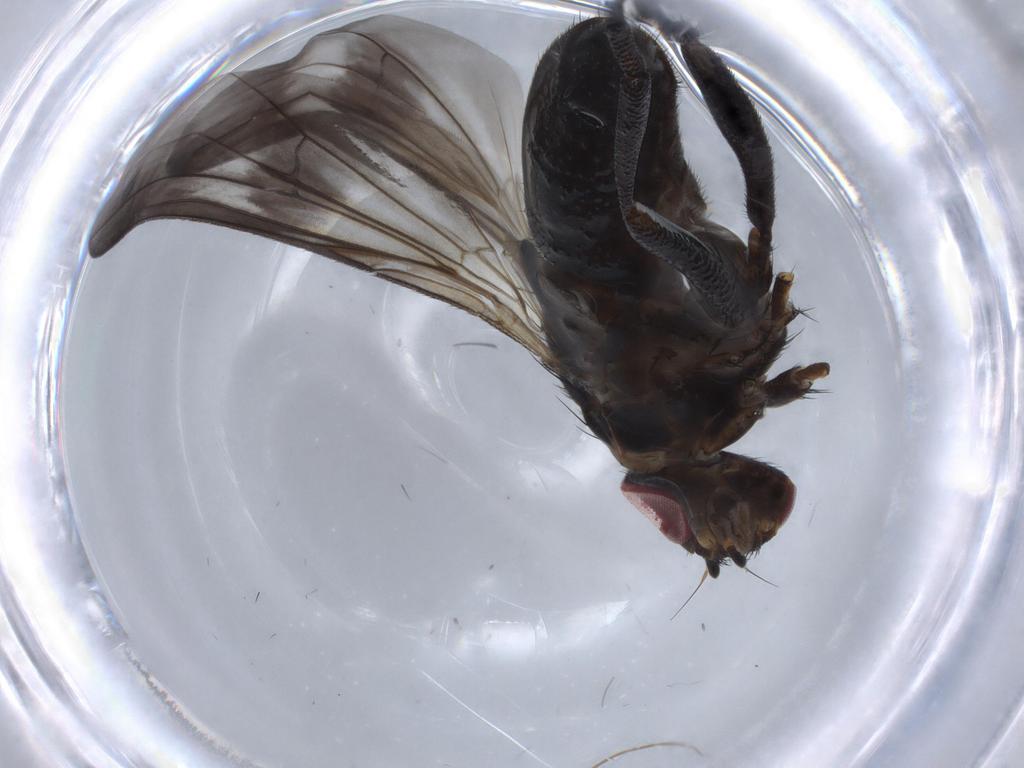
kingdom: Animalia
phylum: Arthropoda
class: Insecta
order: Diptera
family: Calliphoridae
